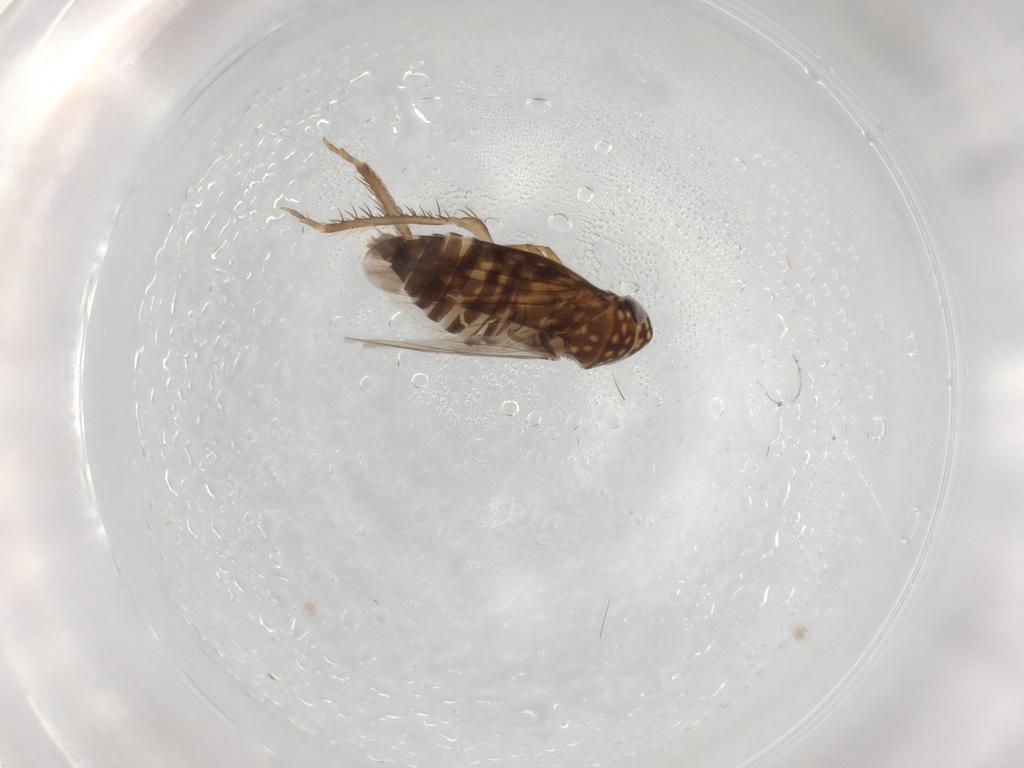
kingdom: Animalia
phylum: Arthropoda
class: Insecta
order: Hemiptera
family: Cicadellidae
